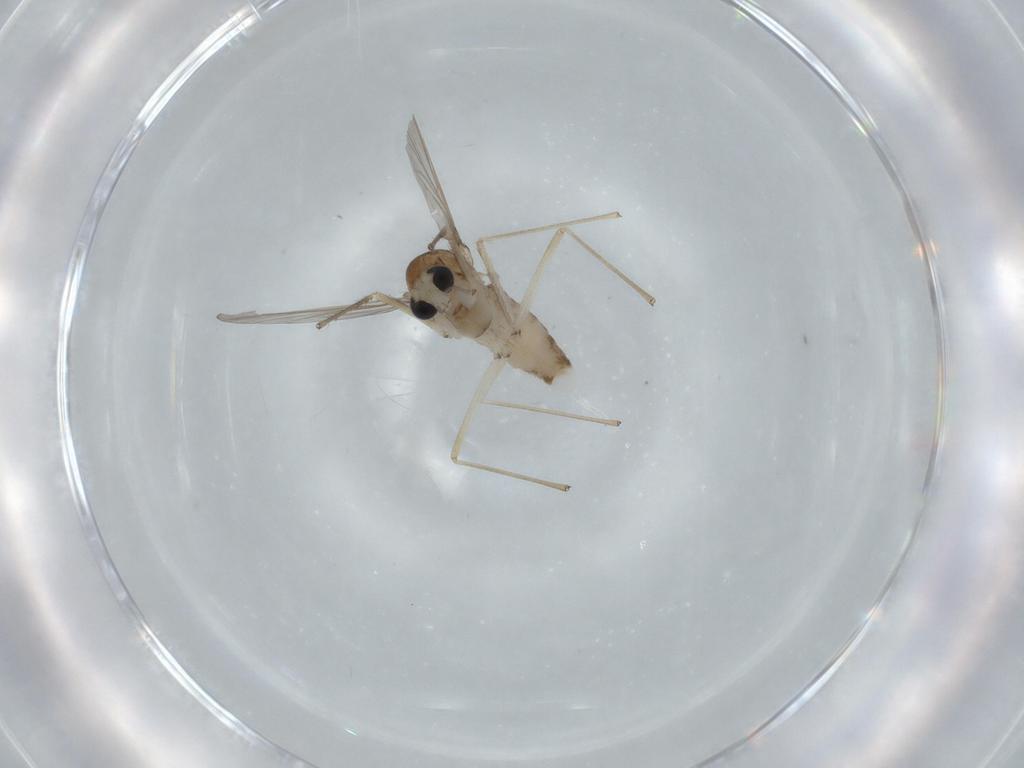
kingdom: Animalia
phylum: Arthropoda
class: Insecta
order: Diptera
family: Chironomidae
